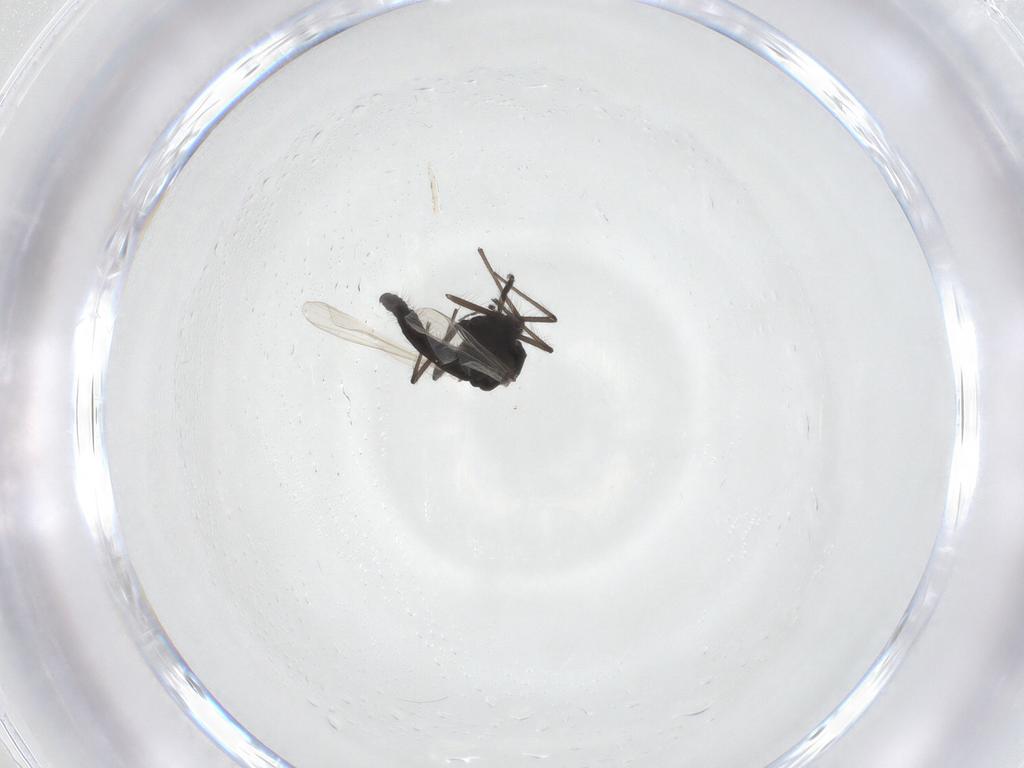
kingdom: Animalia
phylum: Arthropoda
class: Insecta
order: Diptera
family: Chironomidae
